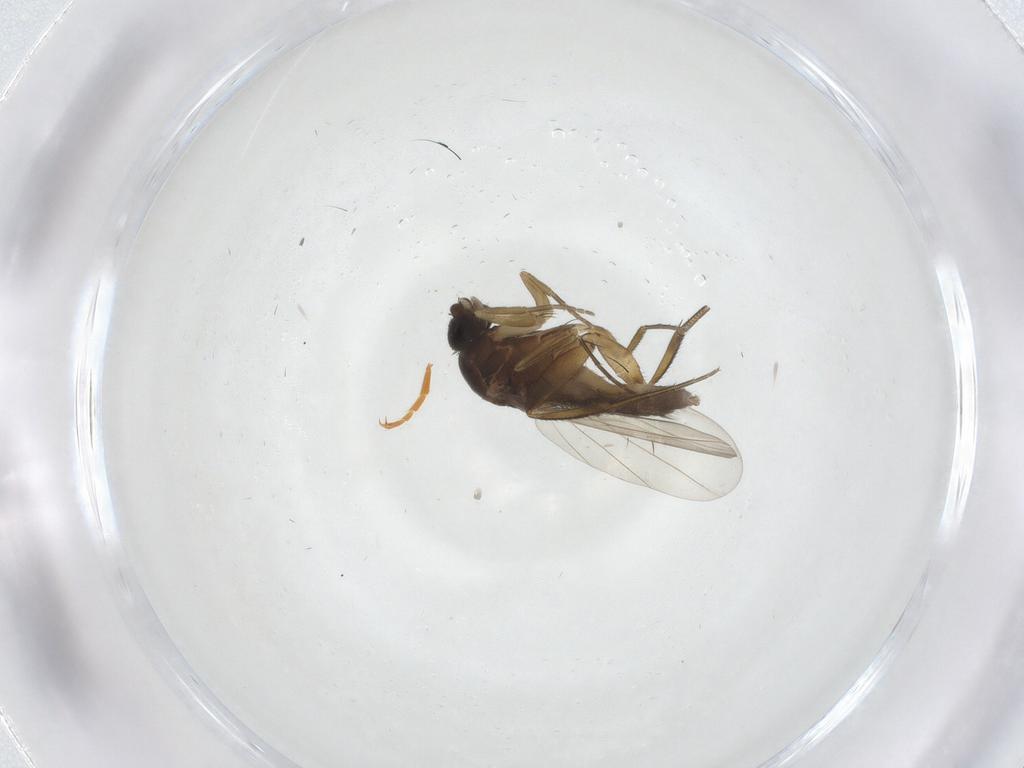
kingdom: Animalia
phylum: Arthropoda
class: Insecta
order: Diptera
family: Phoridae
